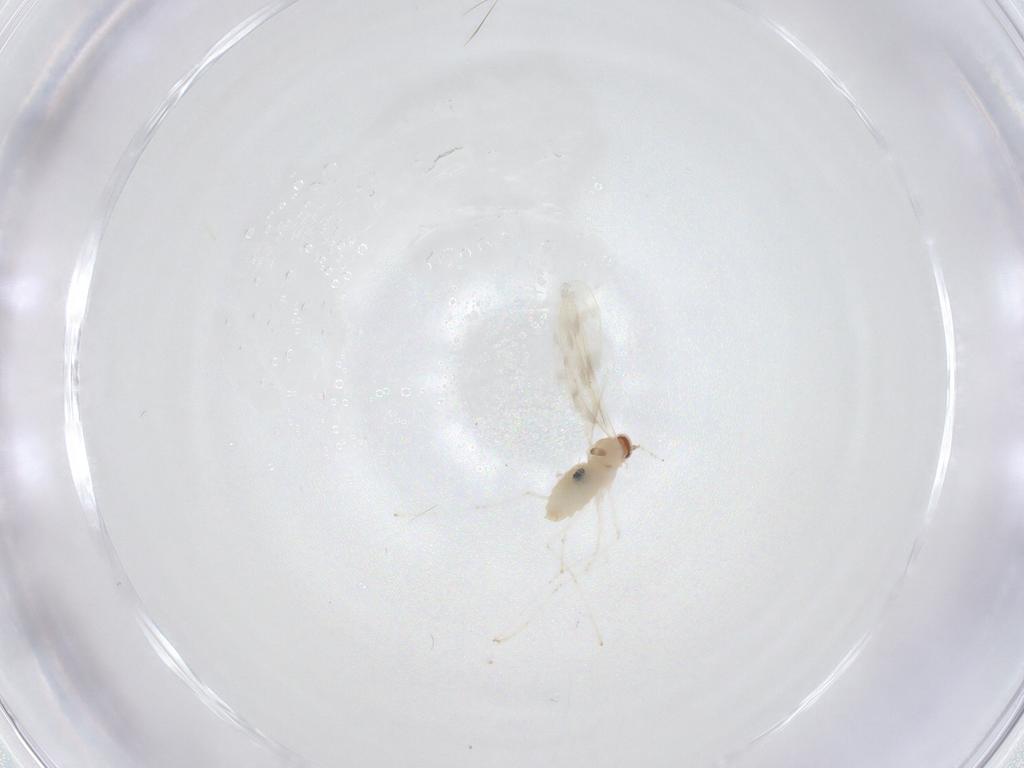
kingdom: Animalia
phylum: Arthropoda
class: Insecta
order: Diptera
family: Cecidomyiidae
